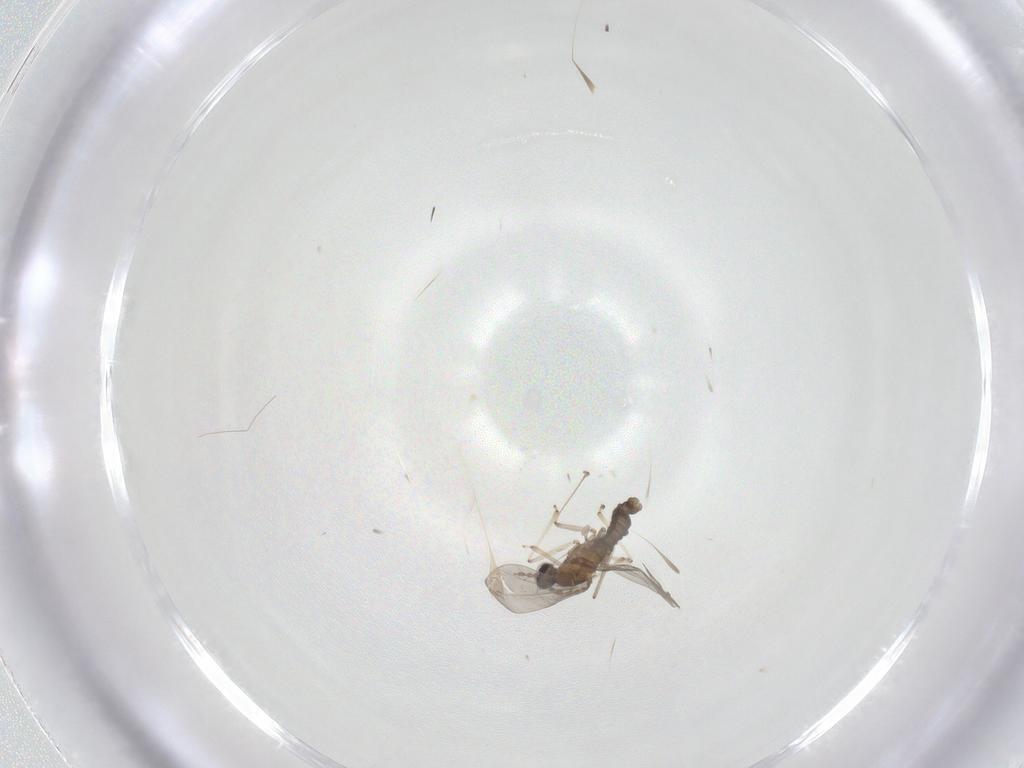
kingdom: Animalia
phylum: Arthropoda
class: Insecta
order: Diptera
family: Cecidomyiidae
